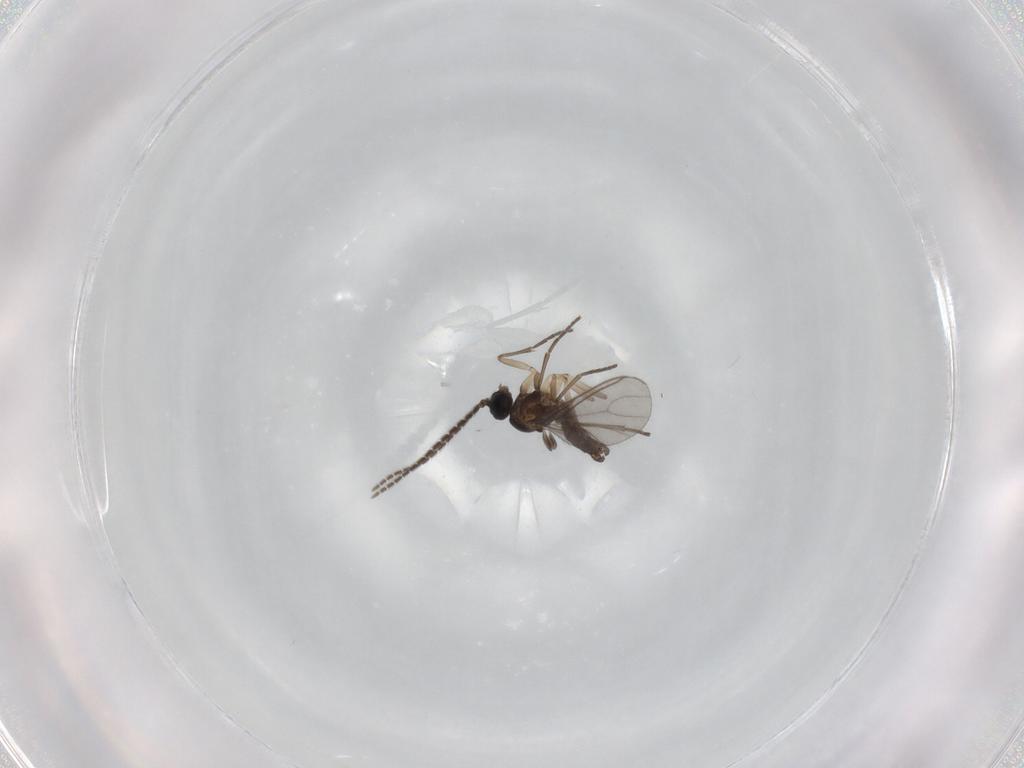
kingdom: Animalia
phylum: Arthropoda
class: Insecta
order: Diptera
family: Sciaridae
